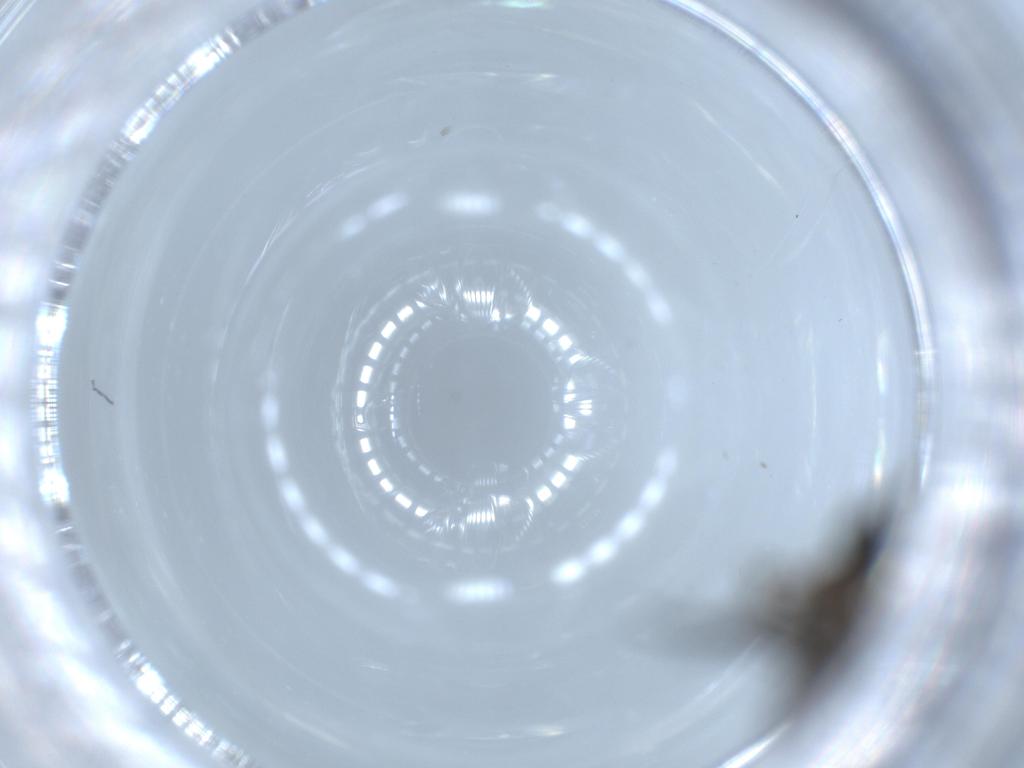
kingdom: Animalia
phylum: Arthropoda
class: Insecta
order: Diptera
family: Sciaridae
